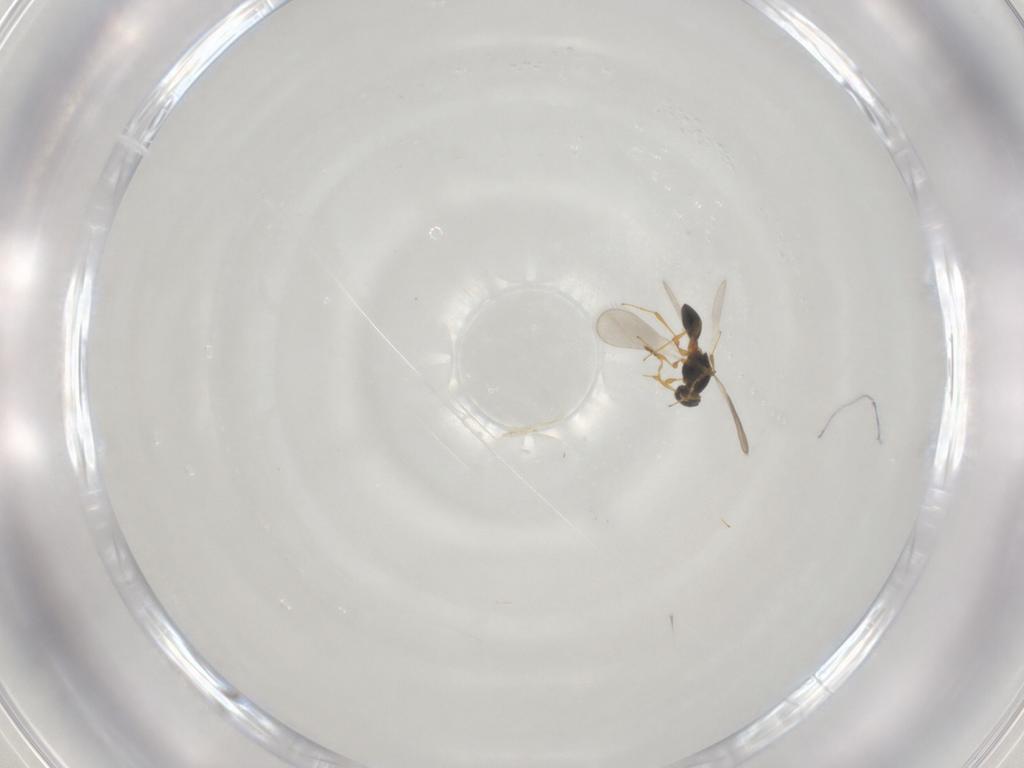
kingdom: Animalia
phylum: Arthropoda
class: Insecta
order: Hymenoptera
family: Platygastridae
